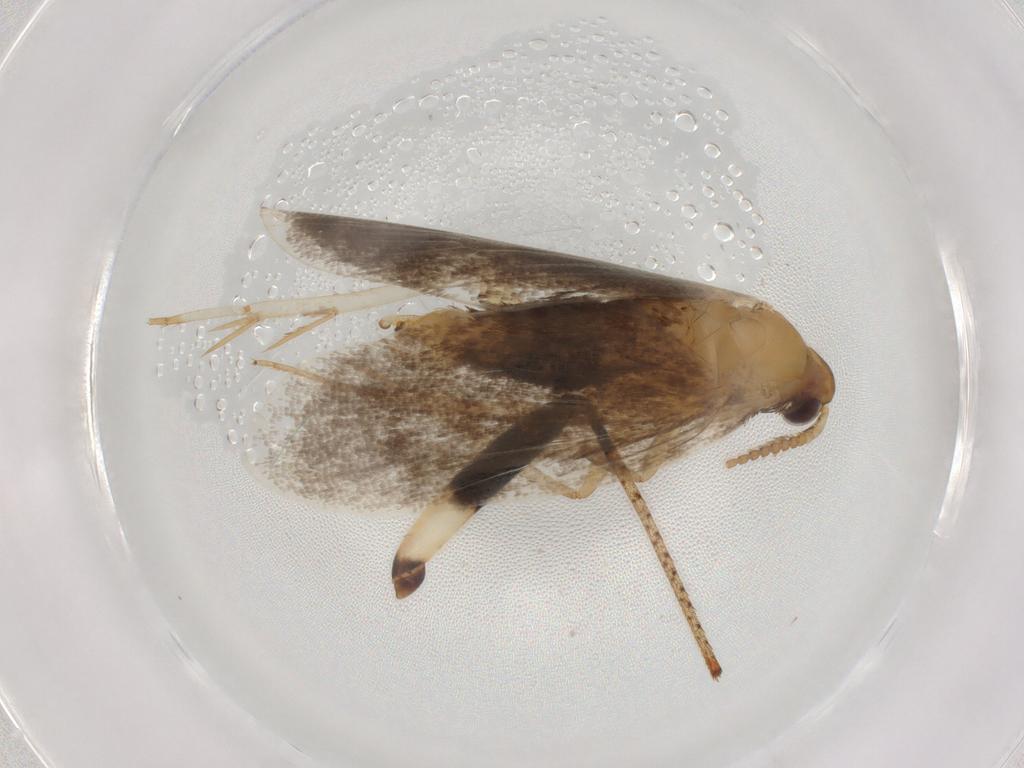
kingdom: Animalia
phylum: Arthropoda
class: Insecta
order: Lepidoptera
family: Lecithoceridae
